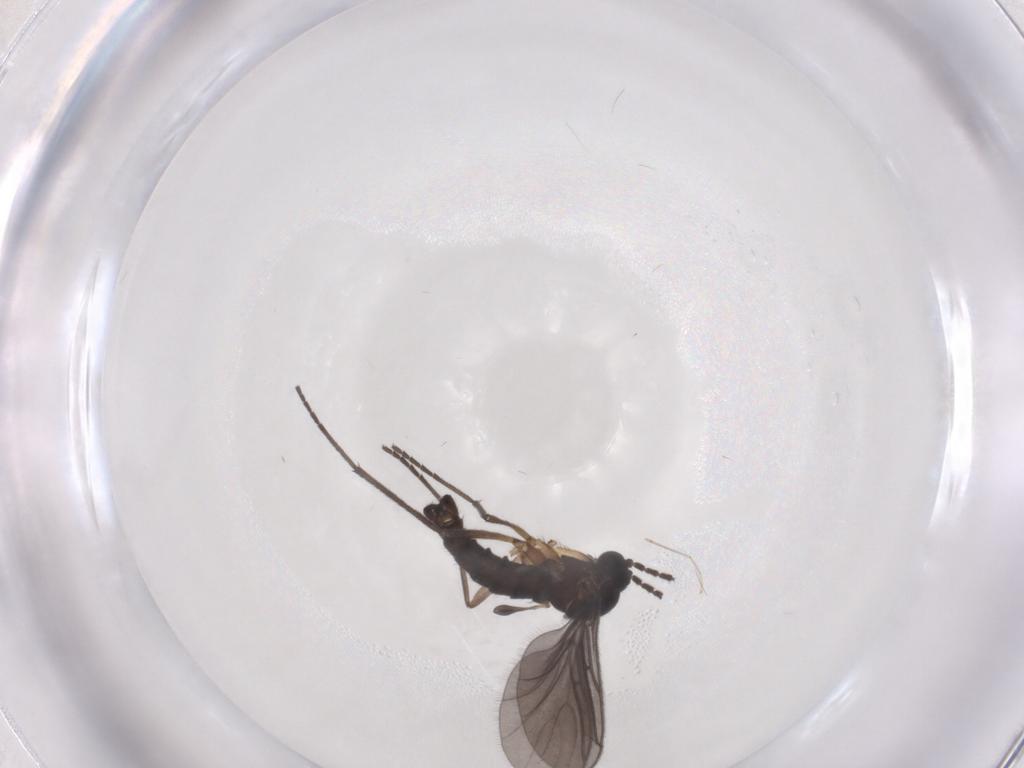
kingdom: Animalia
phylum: Arthropoda
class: Insecta
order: Diptera
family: Sciaridae
